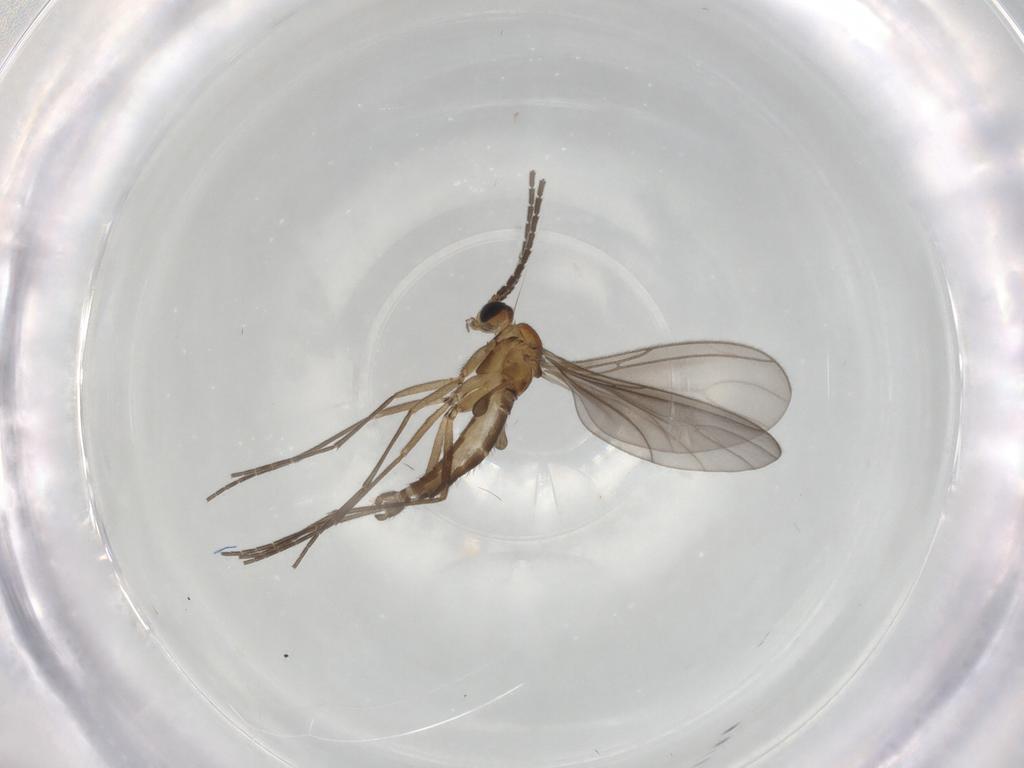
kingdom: Animalia
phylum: Arthropoda
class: Insecta
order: Diptera
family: Sciaridae
